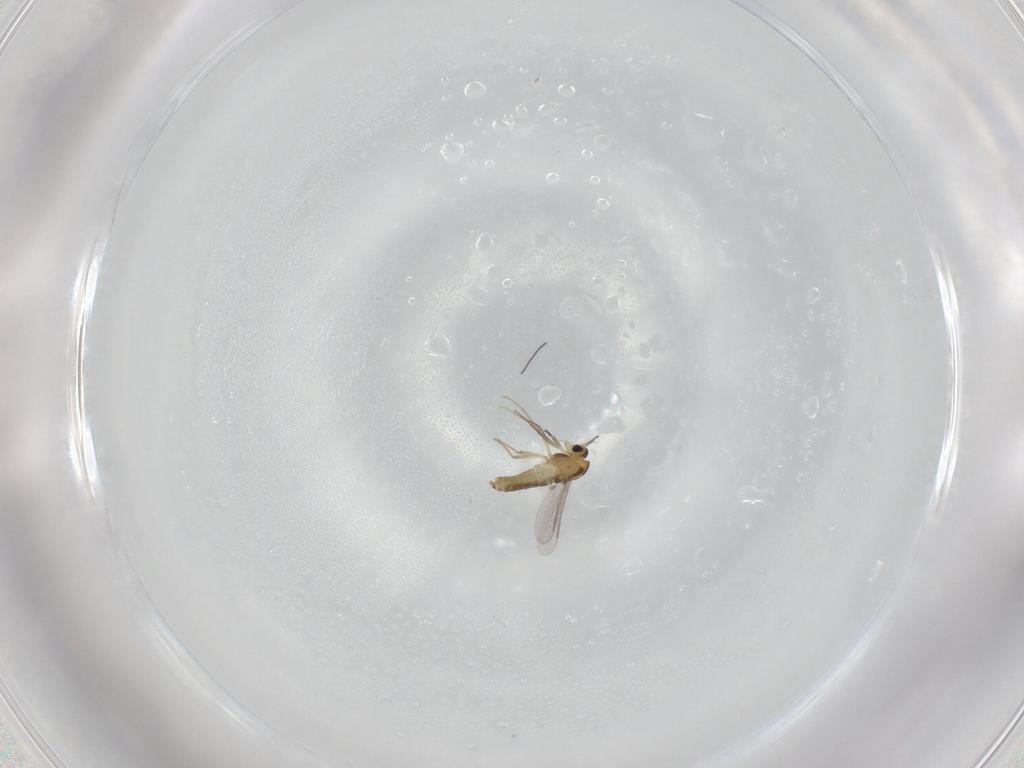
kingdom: Animalia
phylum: Arthropoda
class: Insecta
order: Diptera
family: Chironomidae
